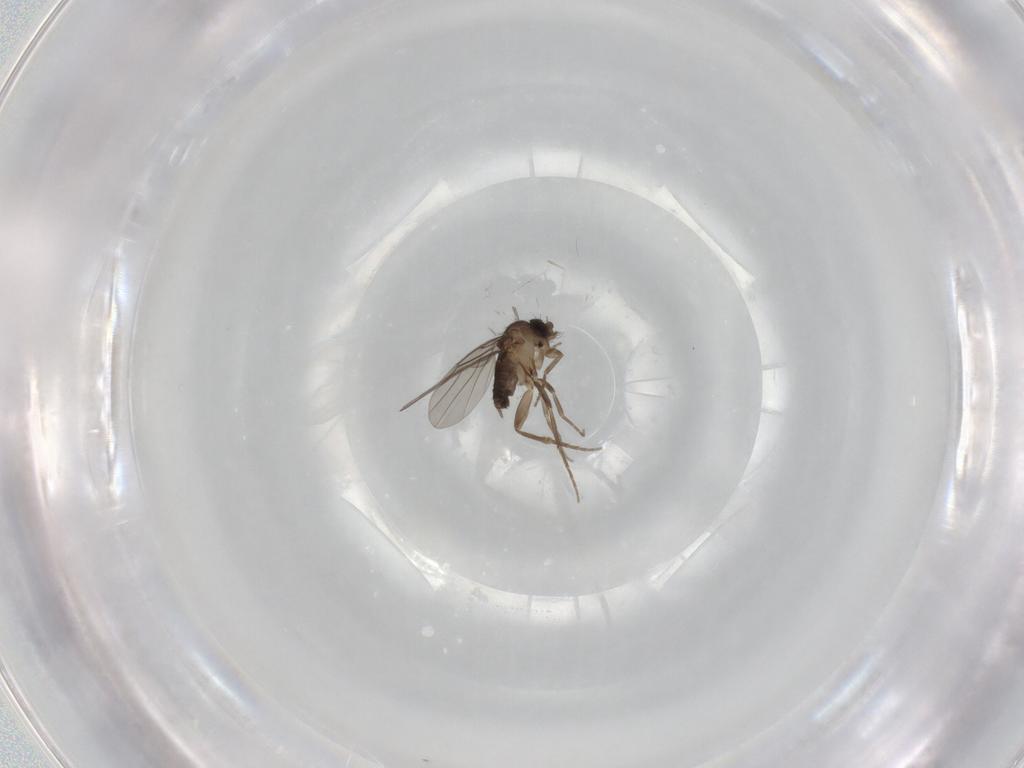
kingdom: Animalia
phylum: Arthropoda
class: Insecta
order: Diptera
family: Phoridae
